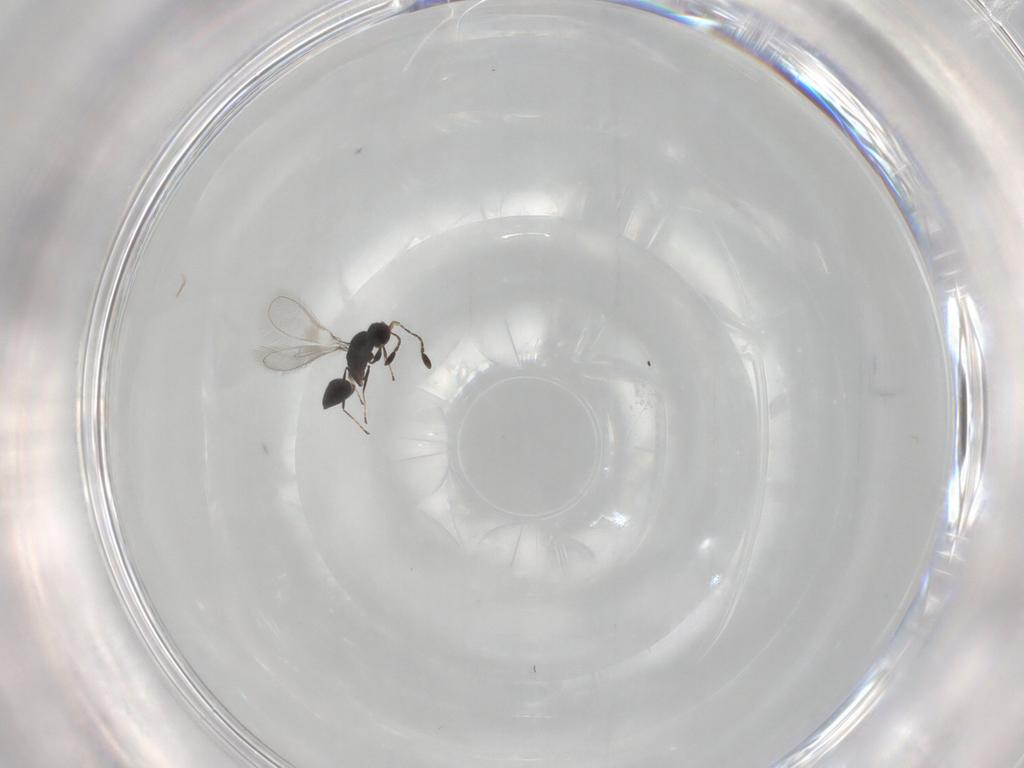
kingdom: Animalia
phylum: Arthropoda
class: Insecta
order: Hymenoptera
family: Mymaridae
